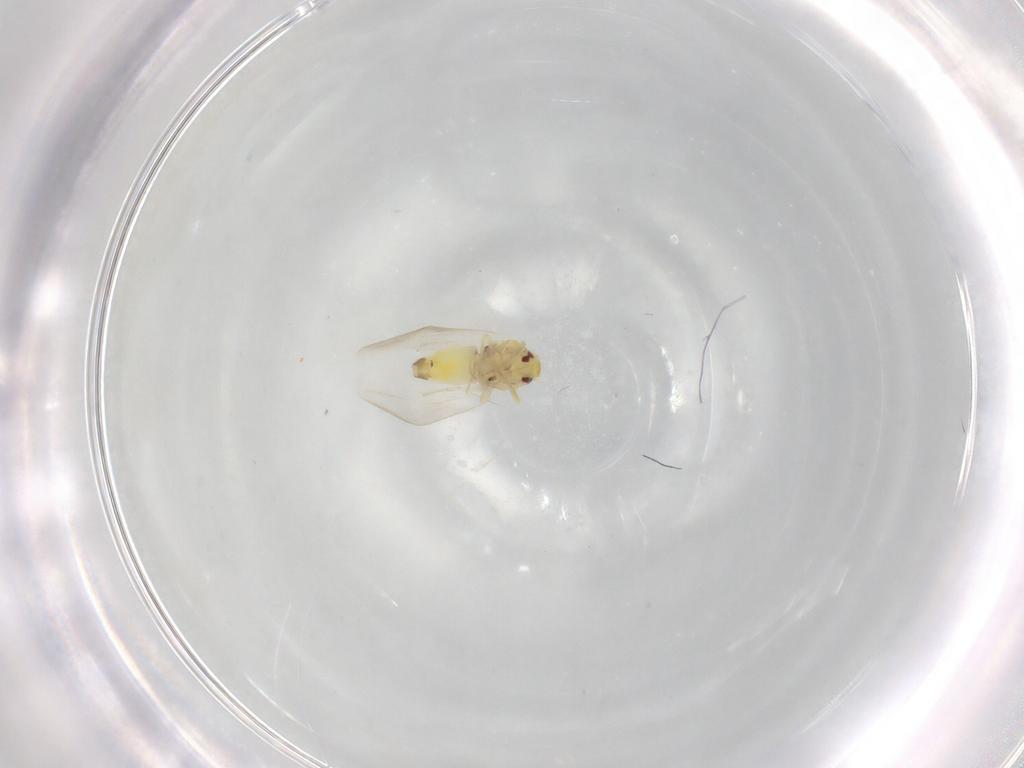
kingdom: Animalia
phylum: Arthropoda
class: Insecta
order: Hemiptera
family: Aleyrodidae
